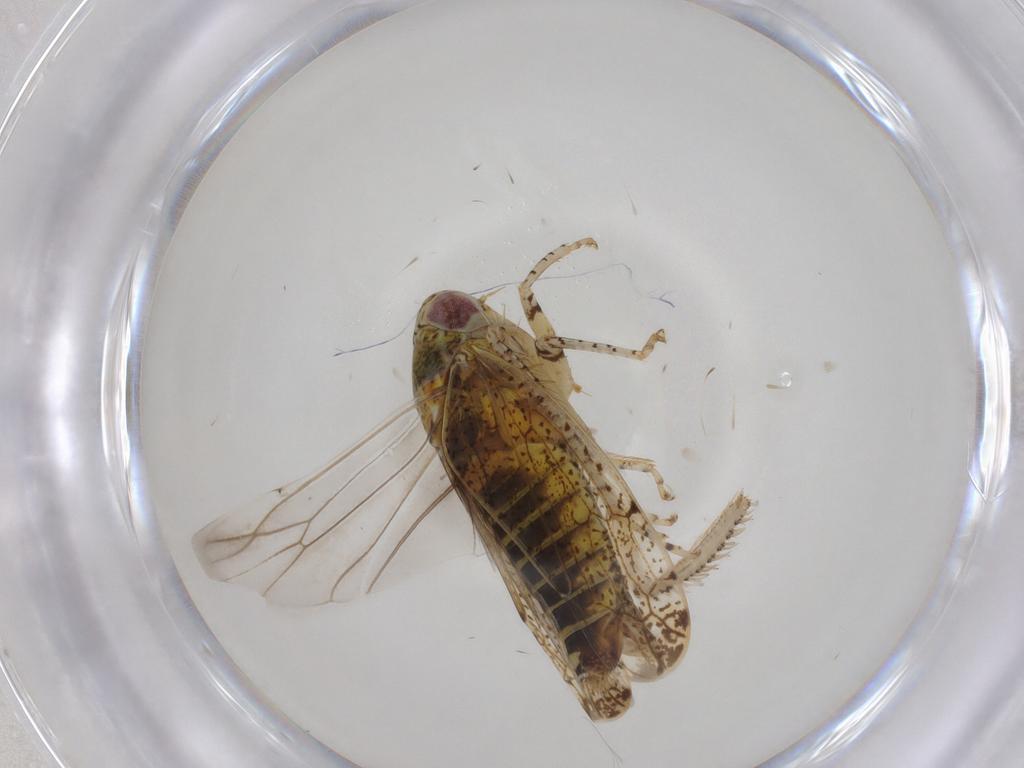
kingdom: Animalia
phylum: Arthropoda
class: Insecta
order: Hemiptera
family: Cicadellidae
